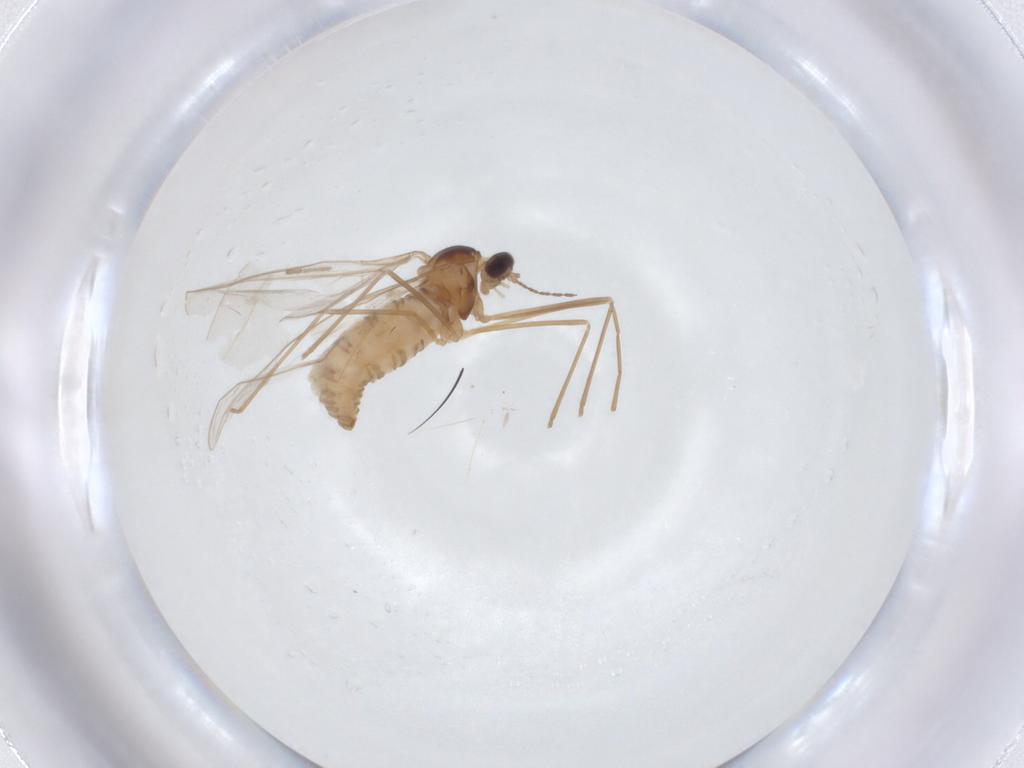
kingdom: Animalia
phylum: Arthropoda
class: Insecta
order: Diptera
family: Cecidomyiidae
